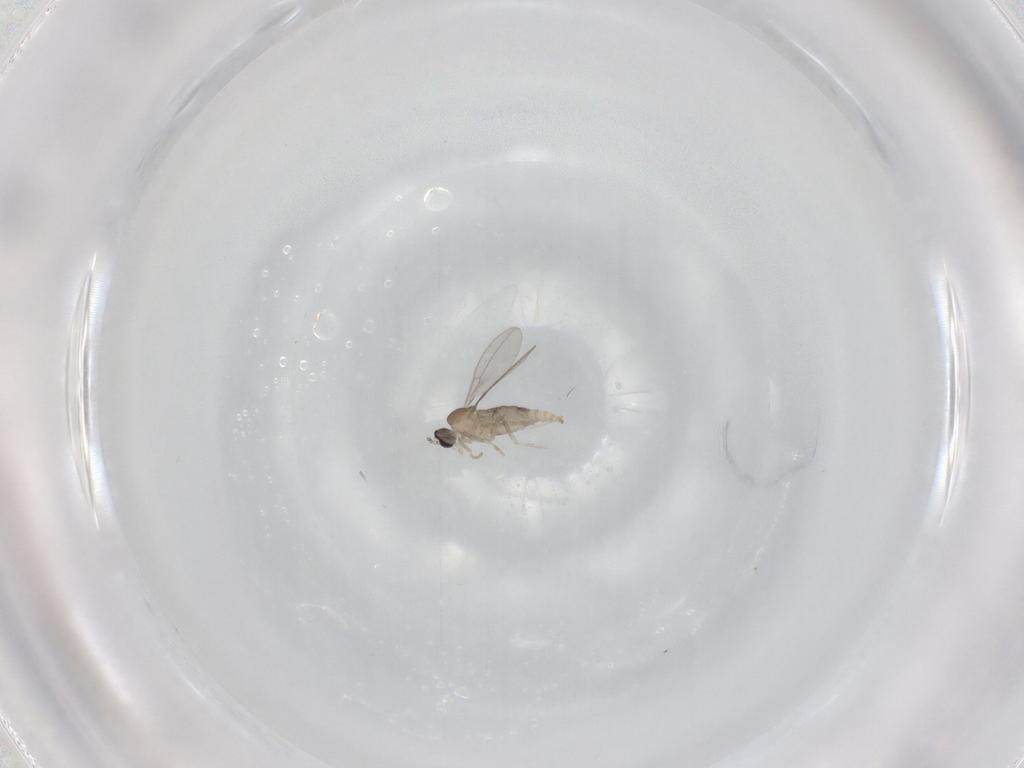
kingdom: Animalia
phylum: Arthropoda
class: Insecta
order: Diptera
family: Cecidomyiidae
